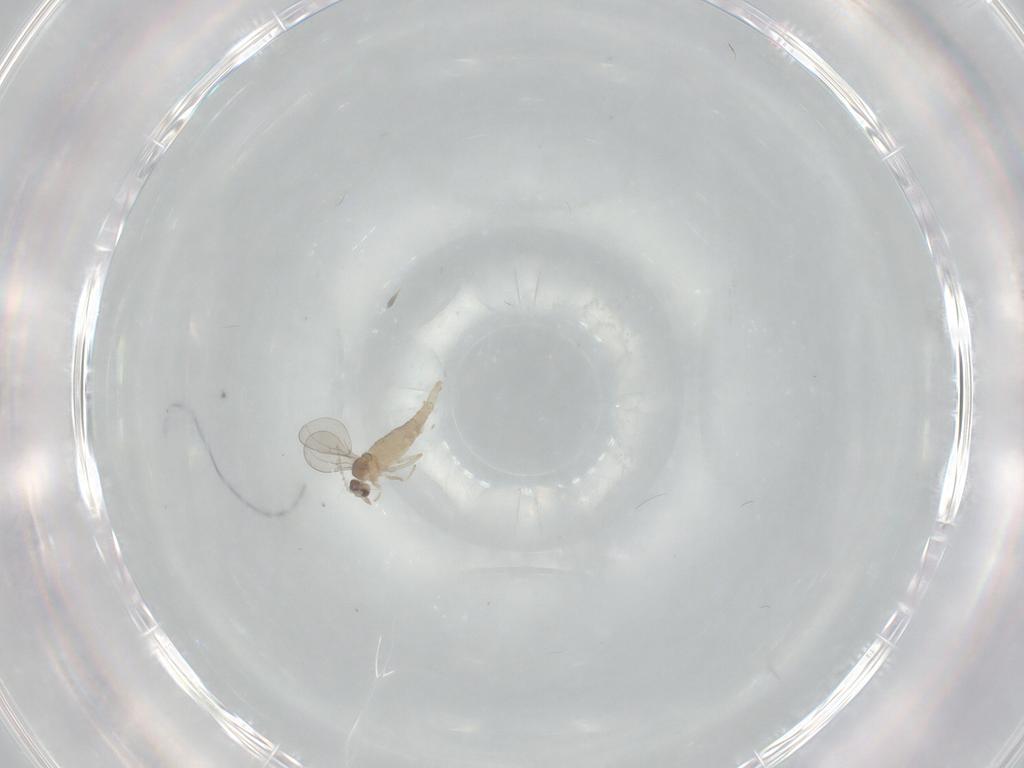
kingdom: Animalia
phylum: Arthropoda
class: Insecta
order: Diptera
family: Cecidomyiidae
